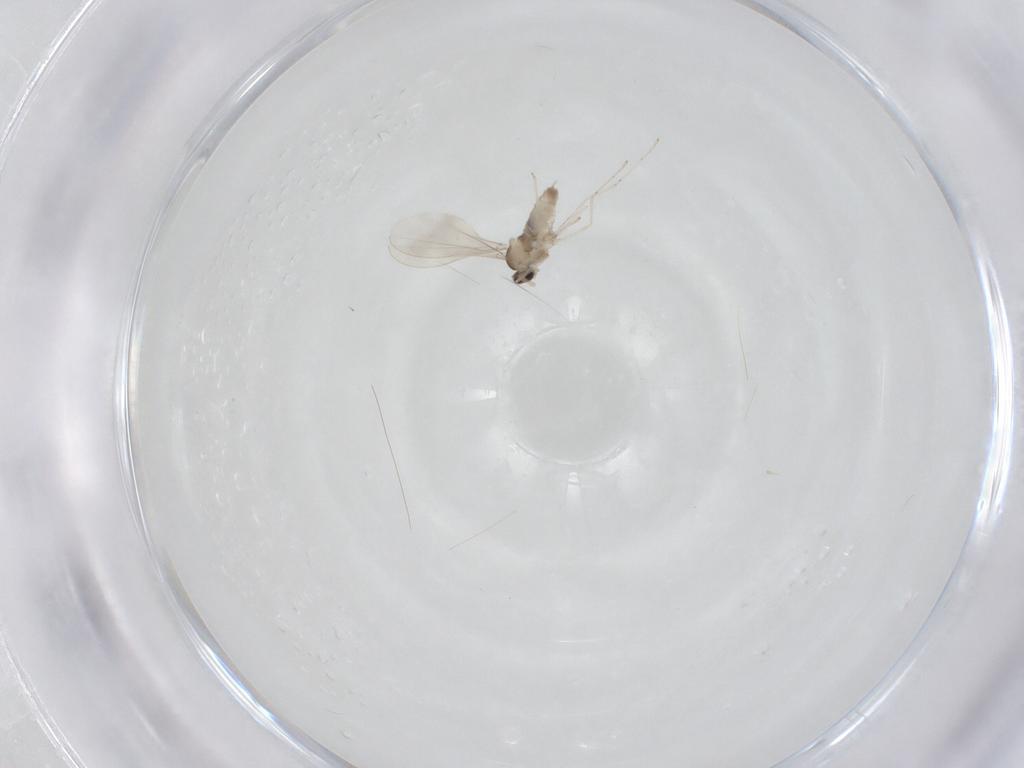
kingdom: Animalia
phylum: Arthropoda
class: Insecta
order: Diptera
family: Cecidomyiidae
